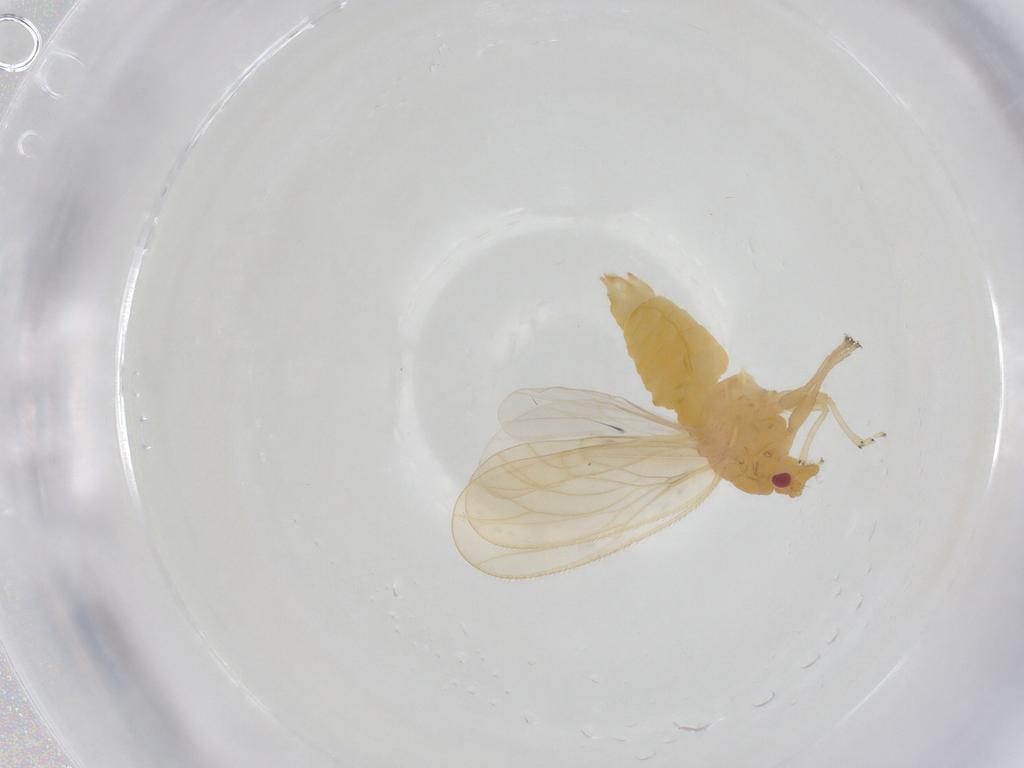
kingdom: Animalia
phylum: Arthropoda
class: Insecta
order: Hemiptera
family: Psyllidae
